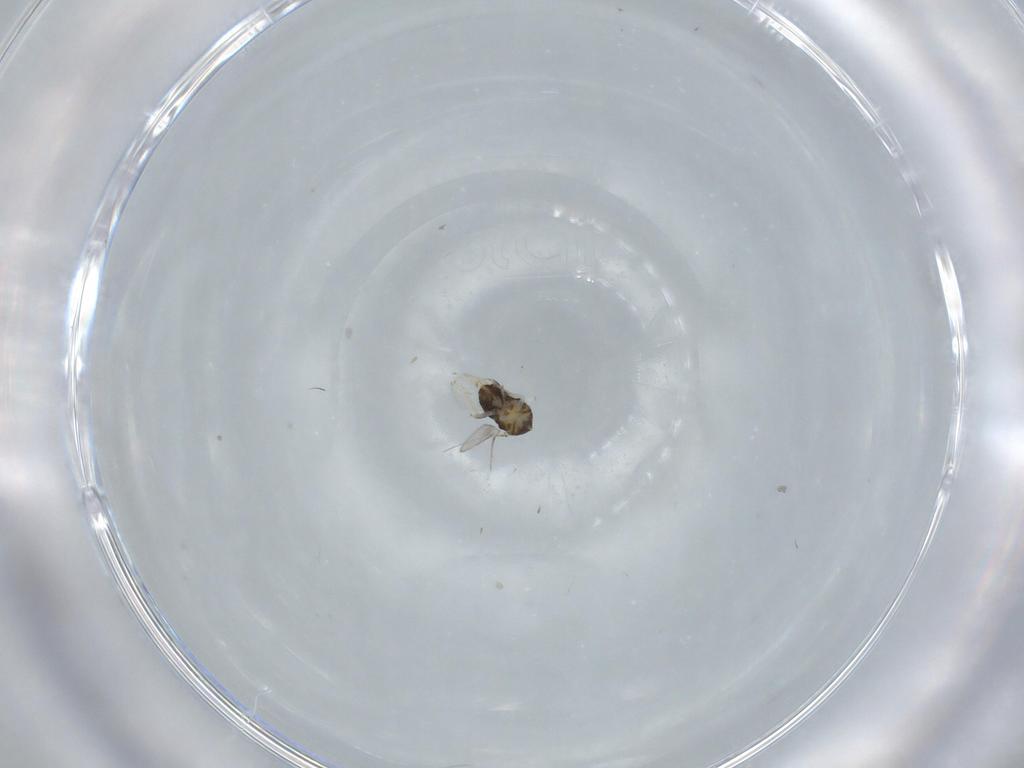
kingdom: Animalia
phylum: Arthropoda
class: Insecta
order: Hymenoptera
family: Aphelinidae
